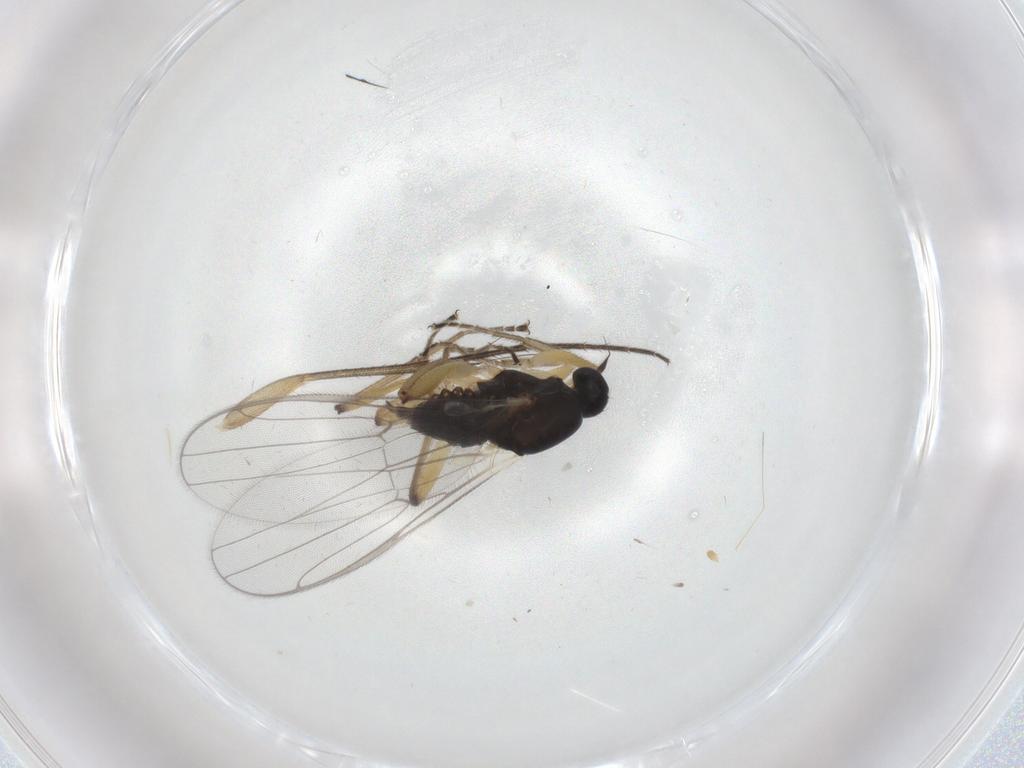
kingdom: Animalia
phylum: Arthropoda
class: Insecta
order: Diptera
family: Hybotidae
